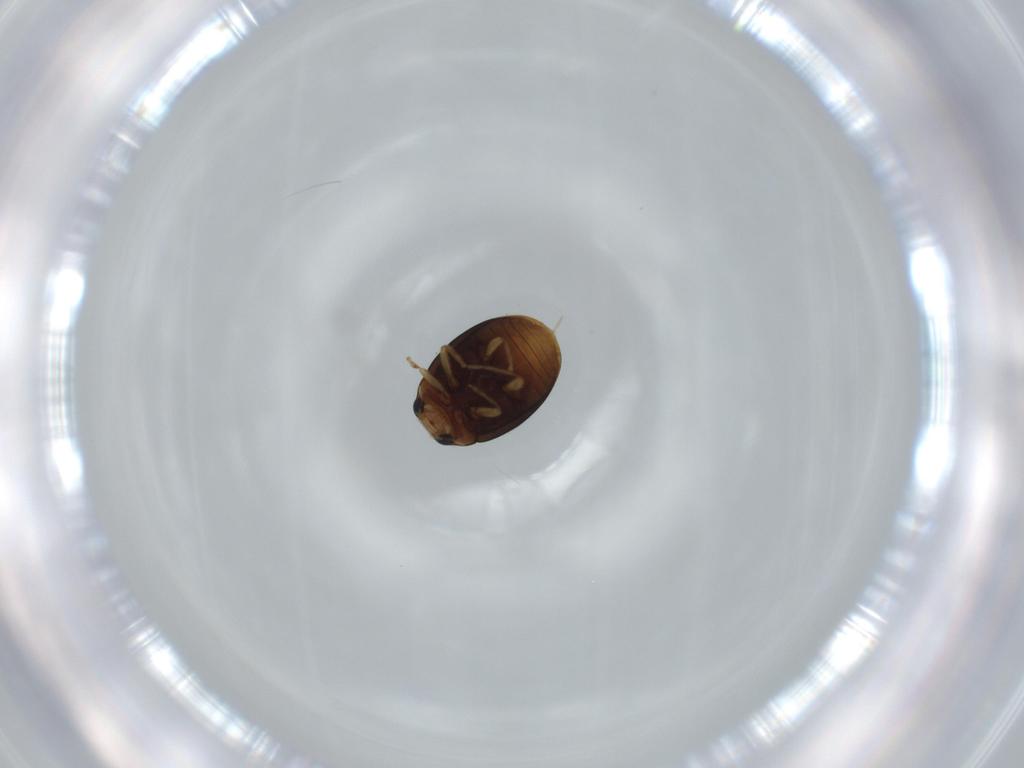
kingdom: Animalia
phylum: Arthropoda
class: Insecta
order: Coleoptera
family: Coccinellidae
